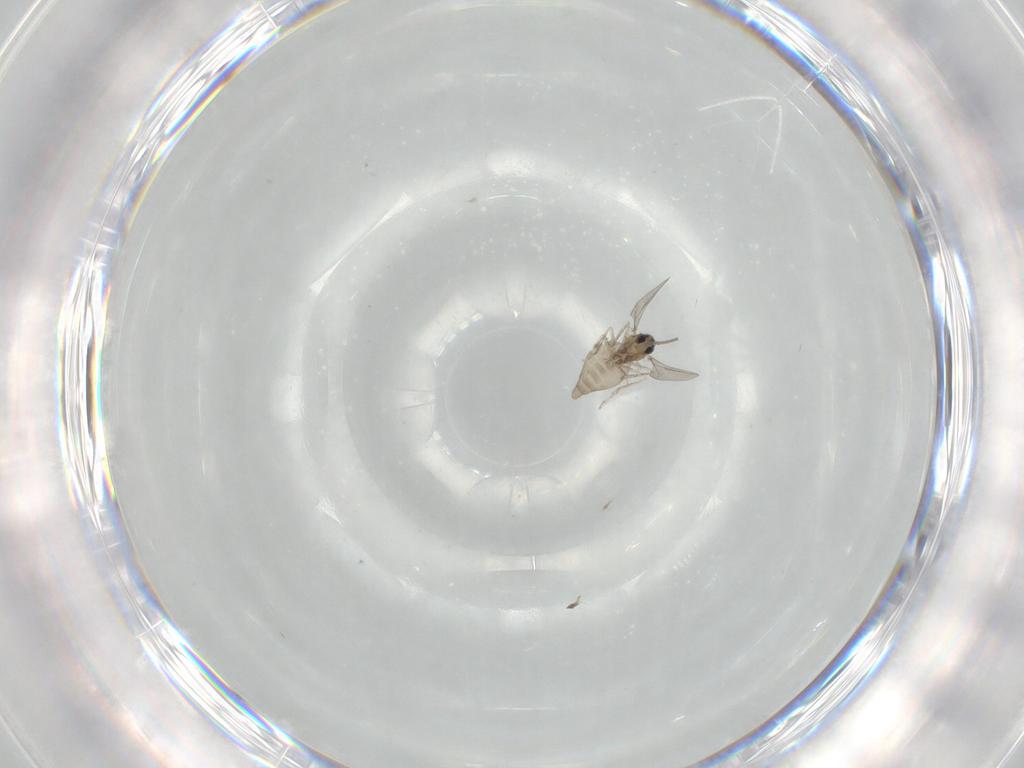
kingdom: Animalia
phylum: Arthropoda
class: Insecta
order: Diptera
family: Cecidomyiidae
